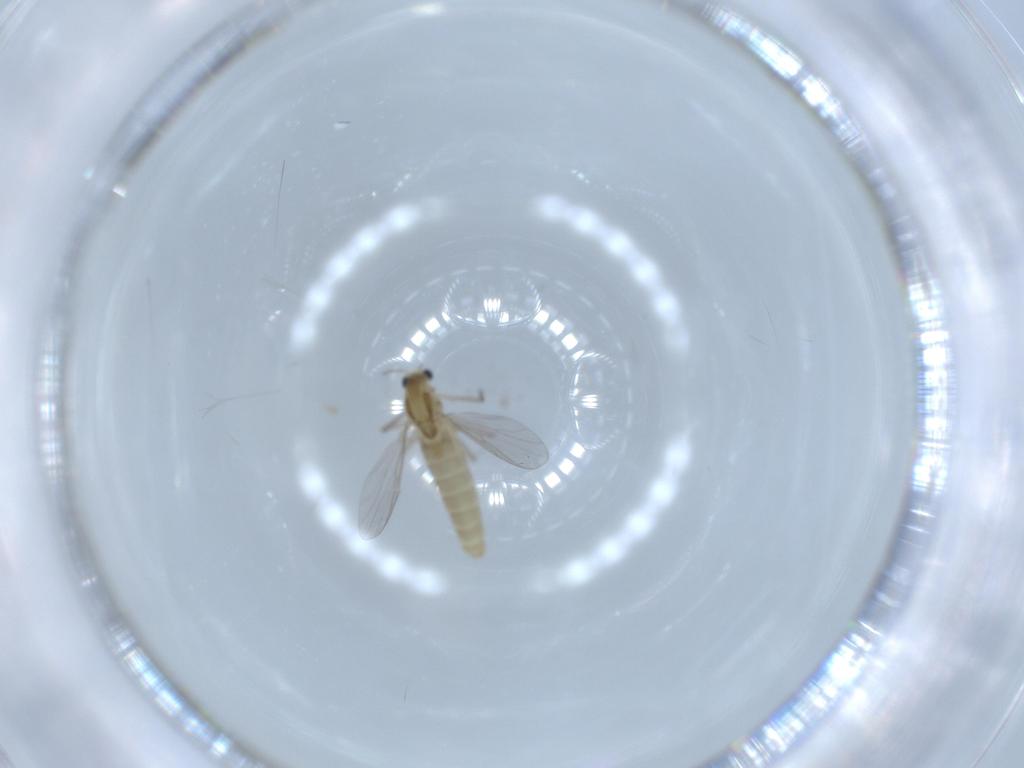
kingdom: Animalia
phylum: Arthropoda
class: Insecta
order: Diptera
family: Chironomidae
